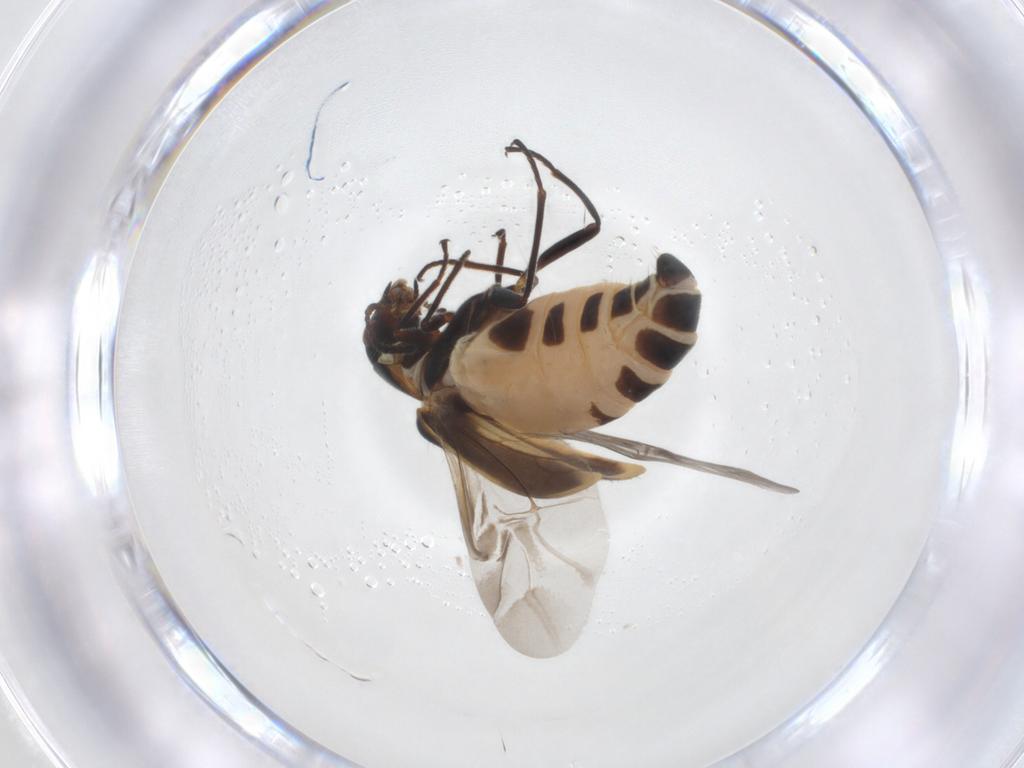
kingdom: Animalia
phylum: Arthropoda
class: Insecta
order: Coleoptera
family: Melyridae
